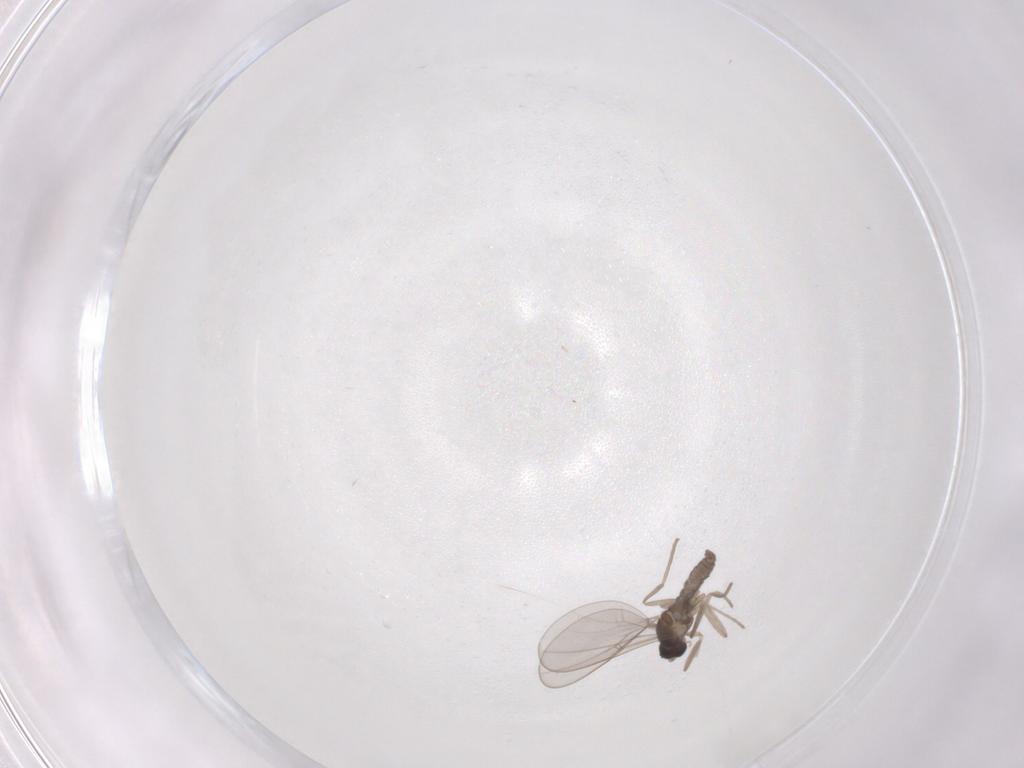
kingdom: Animalia
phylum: Arthropoda
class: Insecta
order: Diptera
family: Cecidomyiidae
